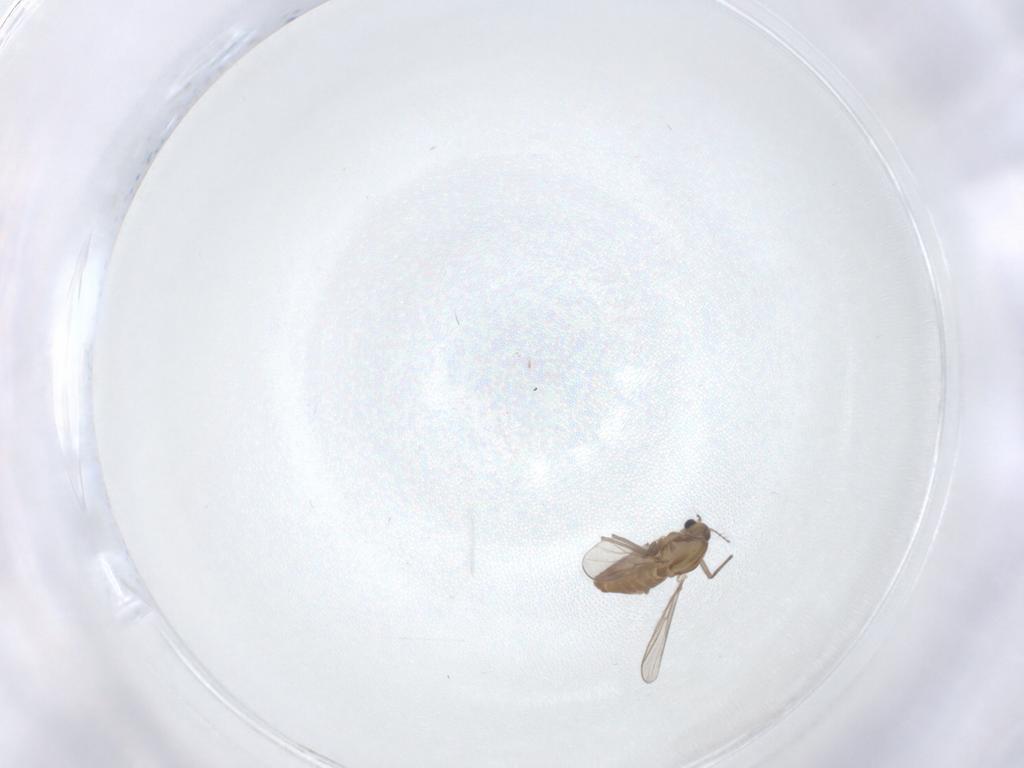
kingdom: Animalia
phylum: Arthropoda
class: Insecta
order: Diptera
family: Chironomidae
